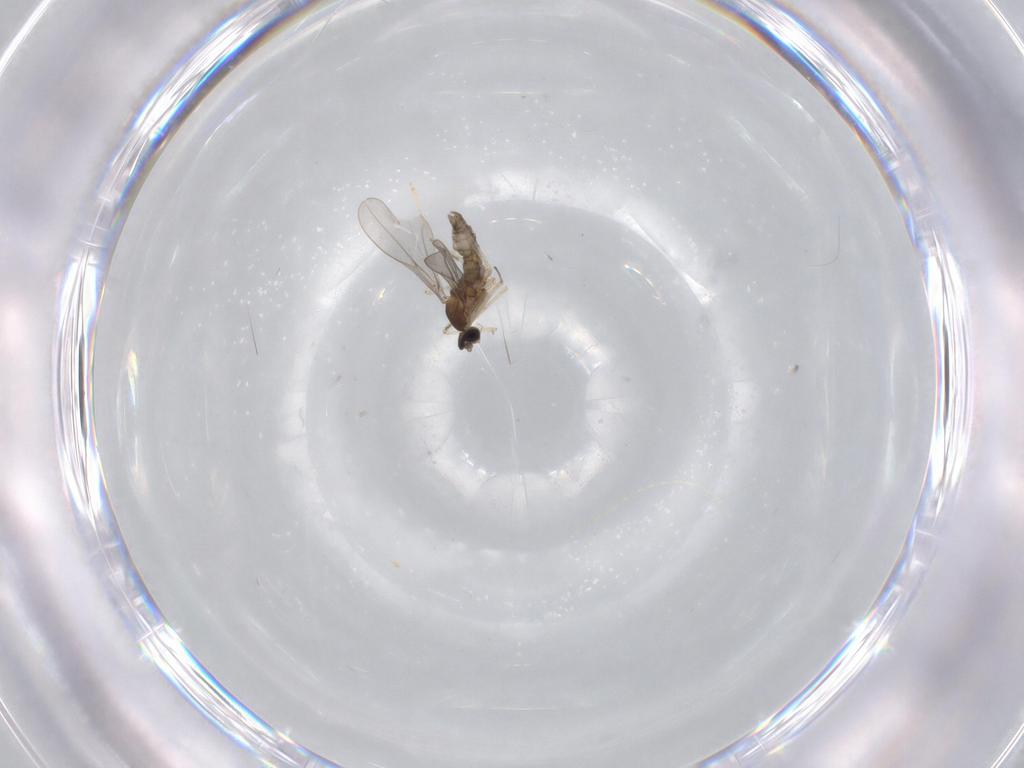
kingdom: Animalia
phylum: Arthropoda
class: Insecta
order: Diptera
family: Cecidomyiidae
